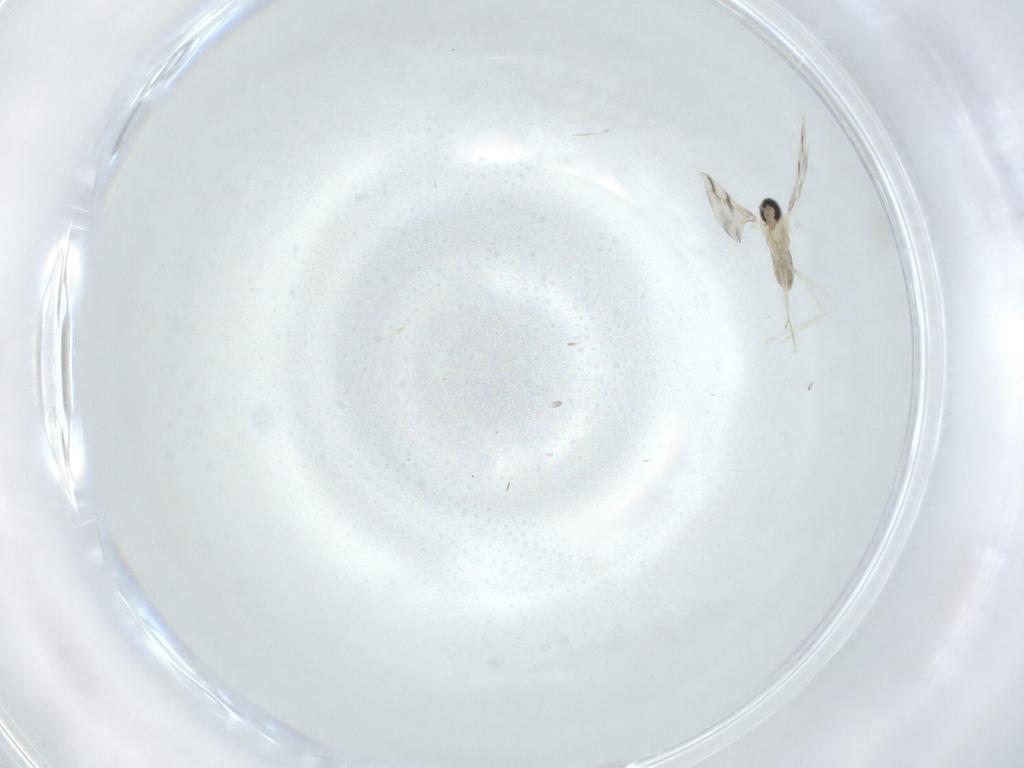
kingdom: Animalia
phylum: Arthropoda
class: Insecta
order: Diptera
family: Cecidomyiidae
